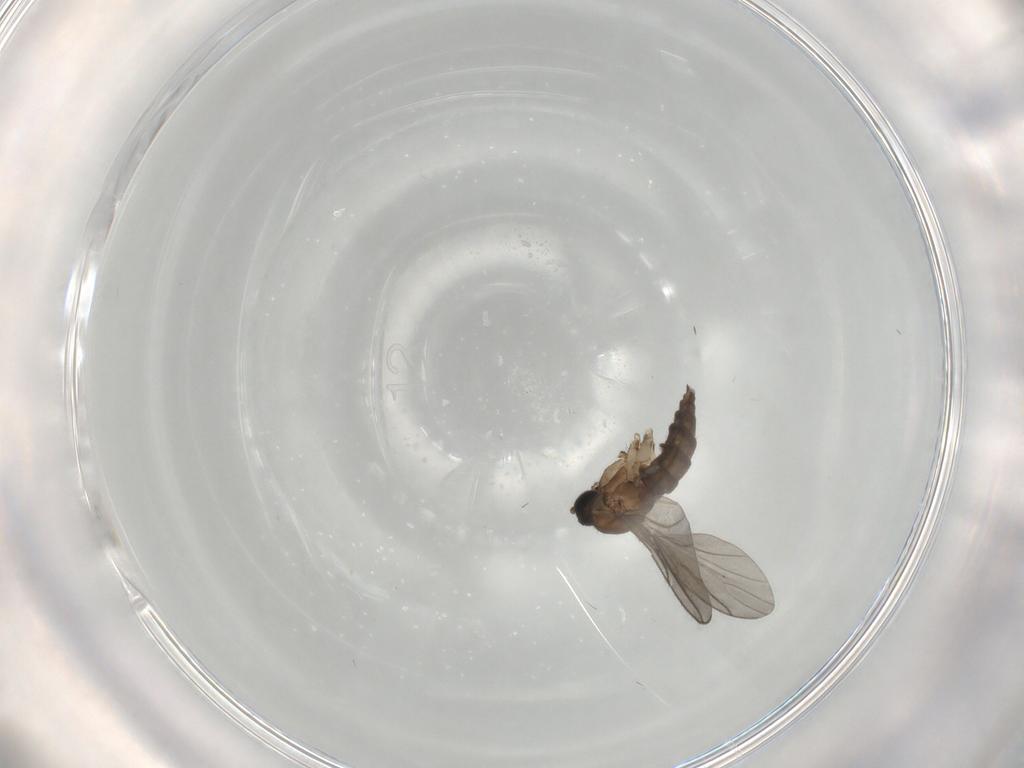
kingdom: Animalia
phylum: Arthropoda
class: Insecta
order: Diptera
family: Sciaridae
